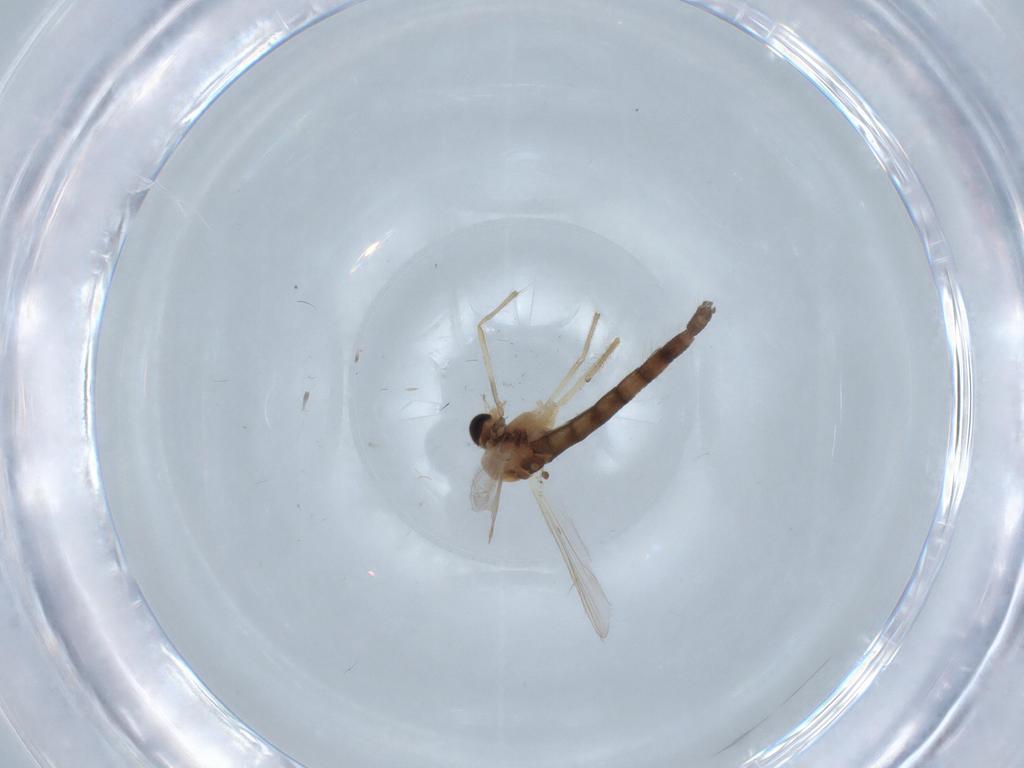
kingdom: Animalia
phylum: Arthropoda
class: Insecta
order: Diptera
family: Chironomidae
